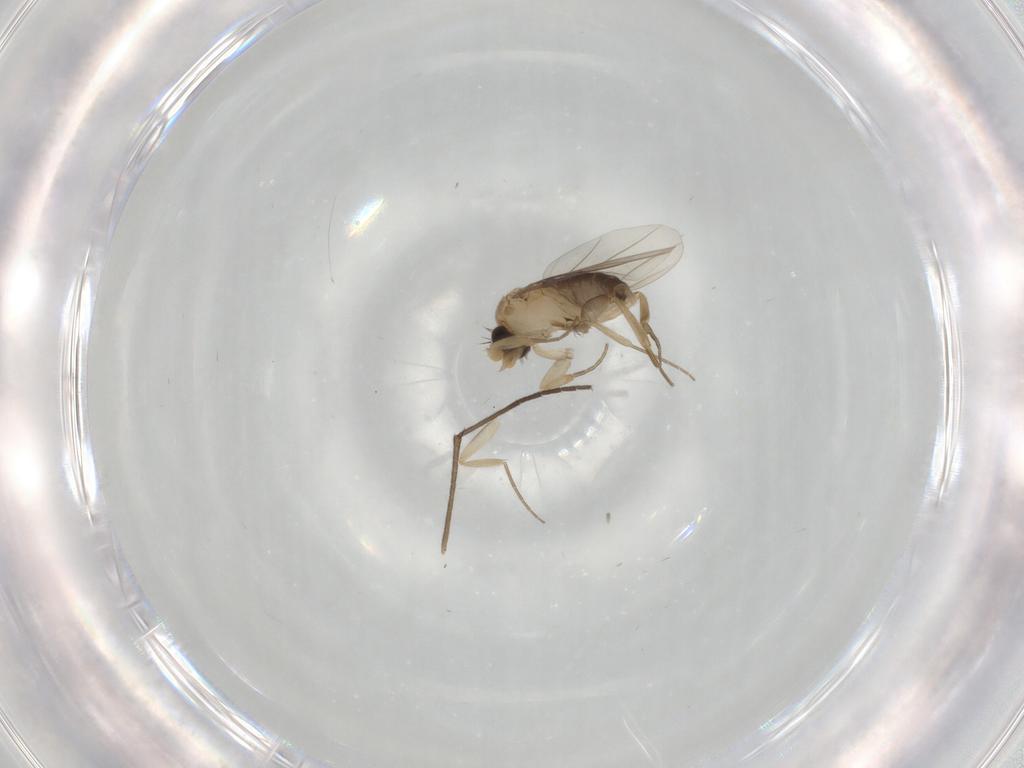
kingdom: Animalia
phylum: Arthropoda
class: Insecta
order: Diptera
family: Phoridae
